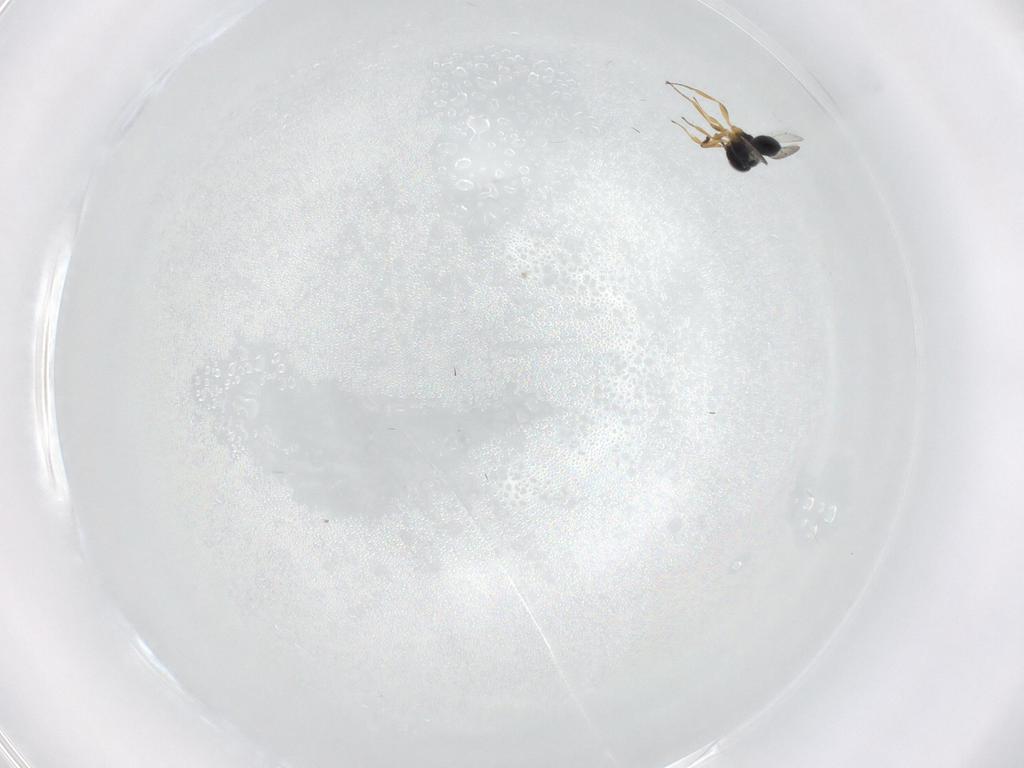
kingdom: Animalia
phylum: Arthropoda
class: Insecta
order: Hymenoptera
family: Scelionidae
